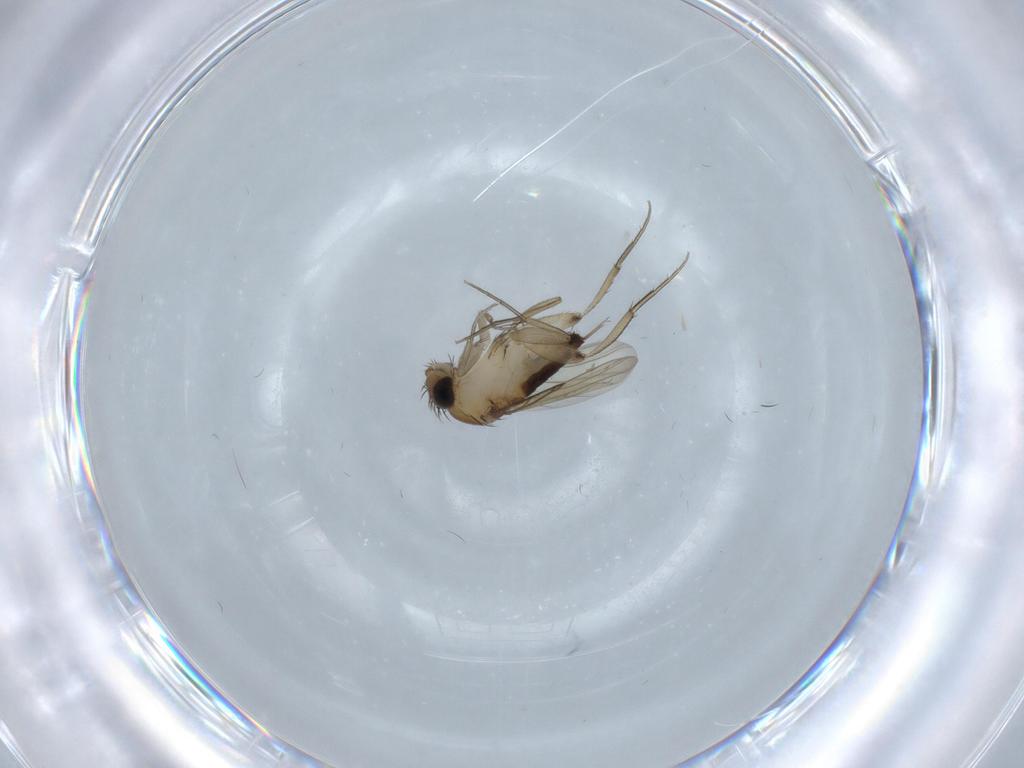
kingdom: Animalia
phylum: Arthropoda
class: Insecta
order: Diptera
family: Phoridae
